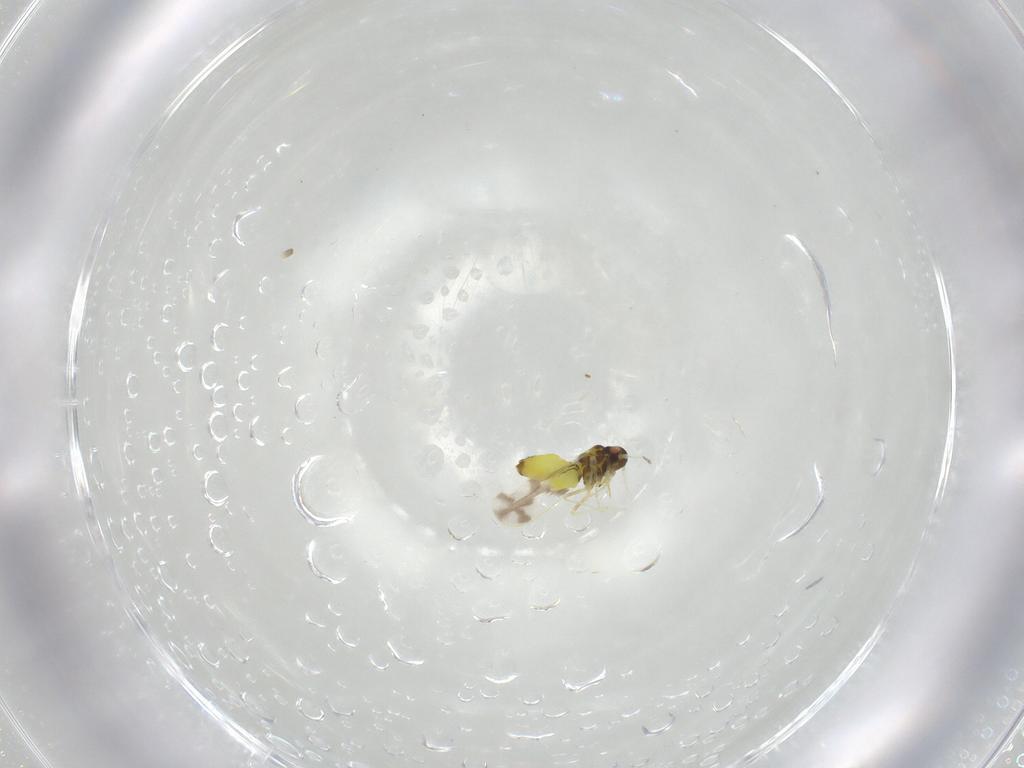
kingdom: Animalia
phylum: Arthropoda
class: Insecta
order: Hemiptera
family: Aleyrodidae
